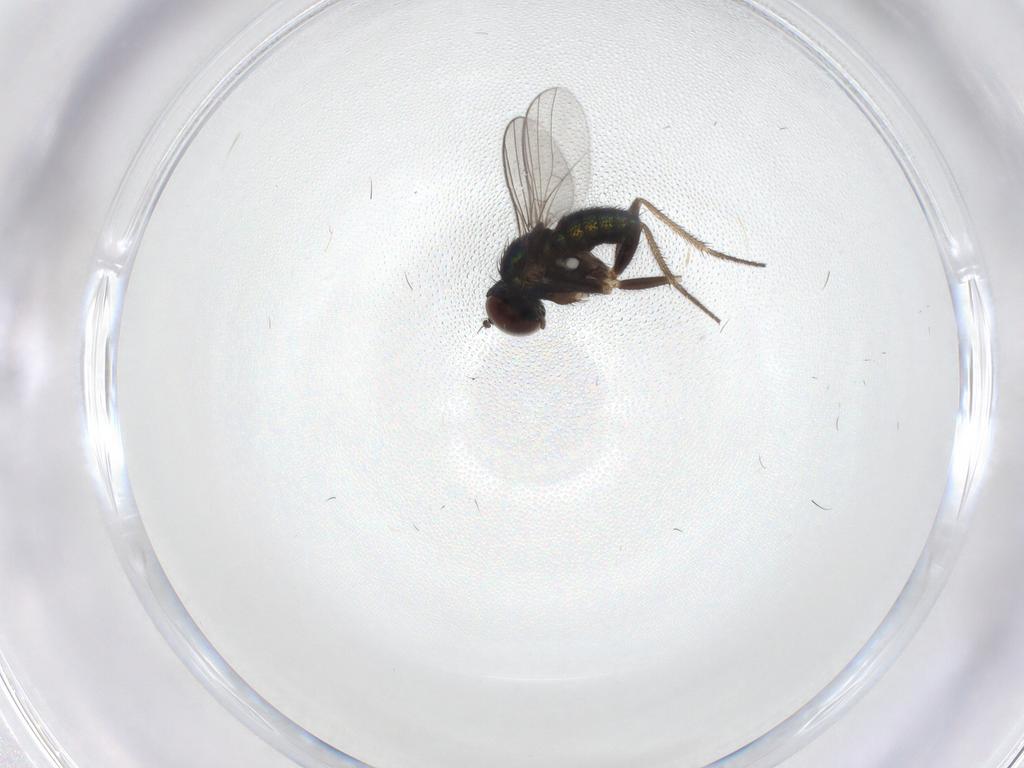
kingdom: Animalia
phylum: Arthropoda
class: Insecta
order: Diptera
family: Dolichopodidae
